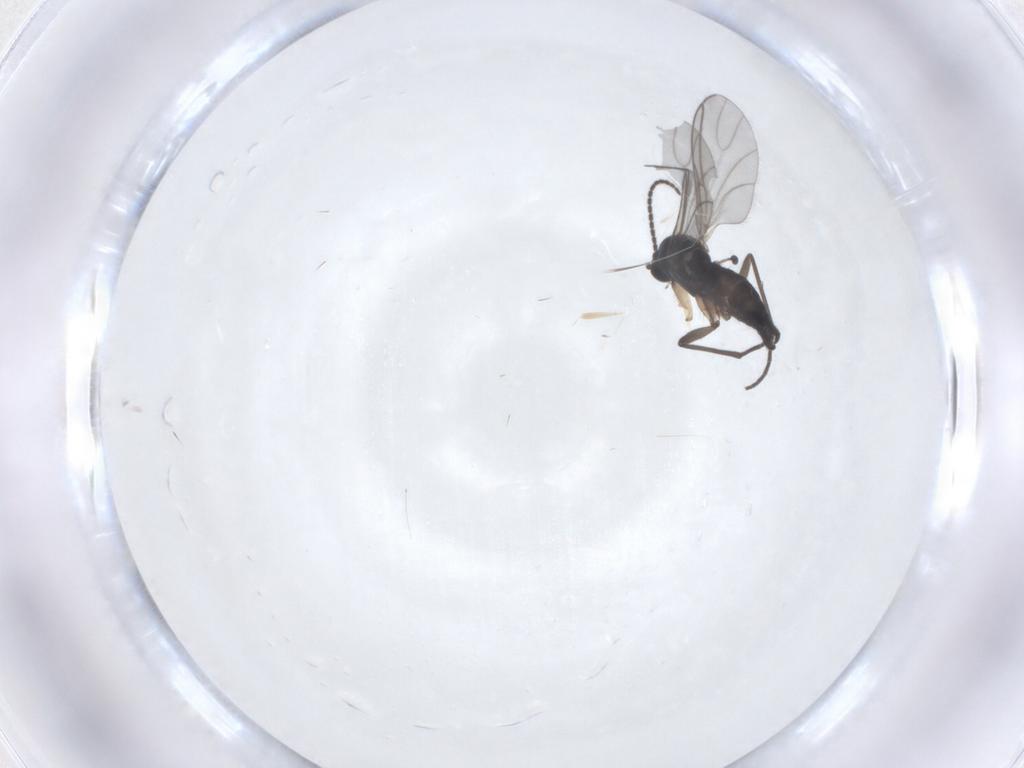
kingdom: Animalia
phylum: Arthropoda
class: Insecta
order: Diptera
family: Sciaridae
